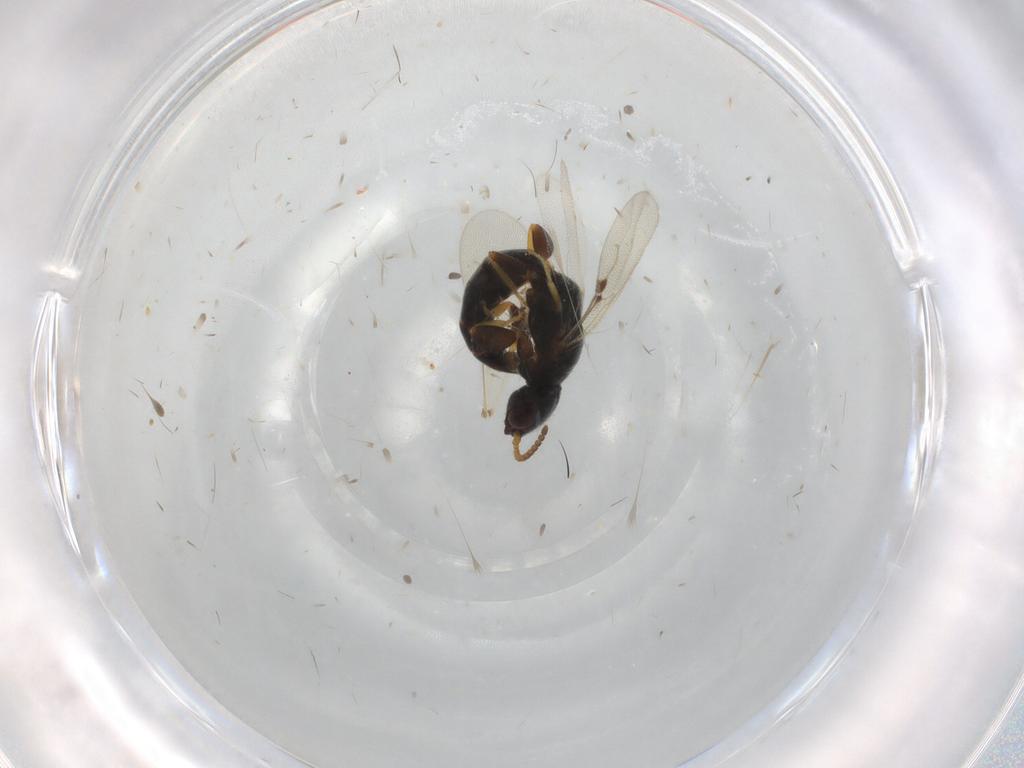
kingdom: Animalia
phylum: Arthropoda
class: Insecta
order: Hymenoptera
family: Bethylidae
